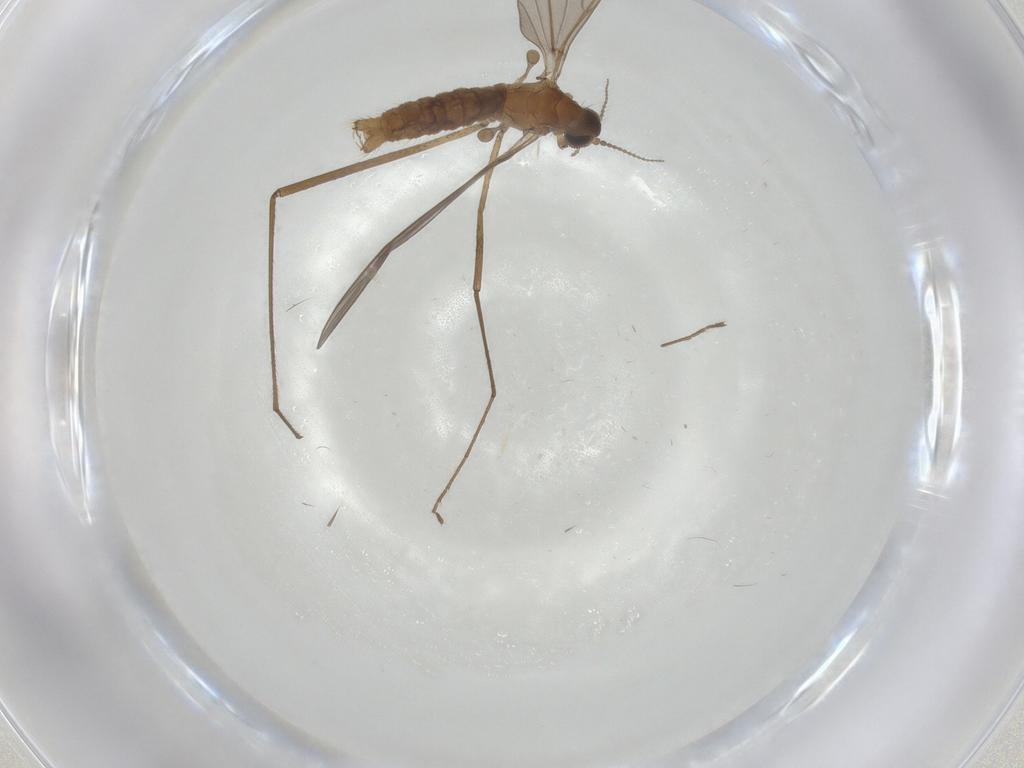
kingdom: Animalia
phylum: Arthropoda
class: Insecta
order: Diptera
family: Limoniidae
